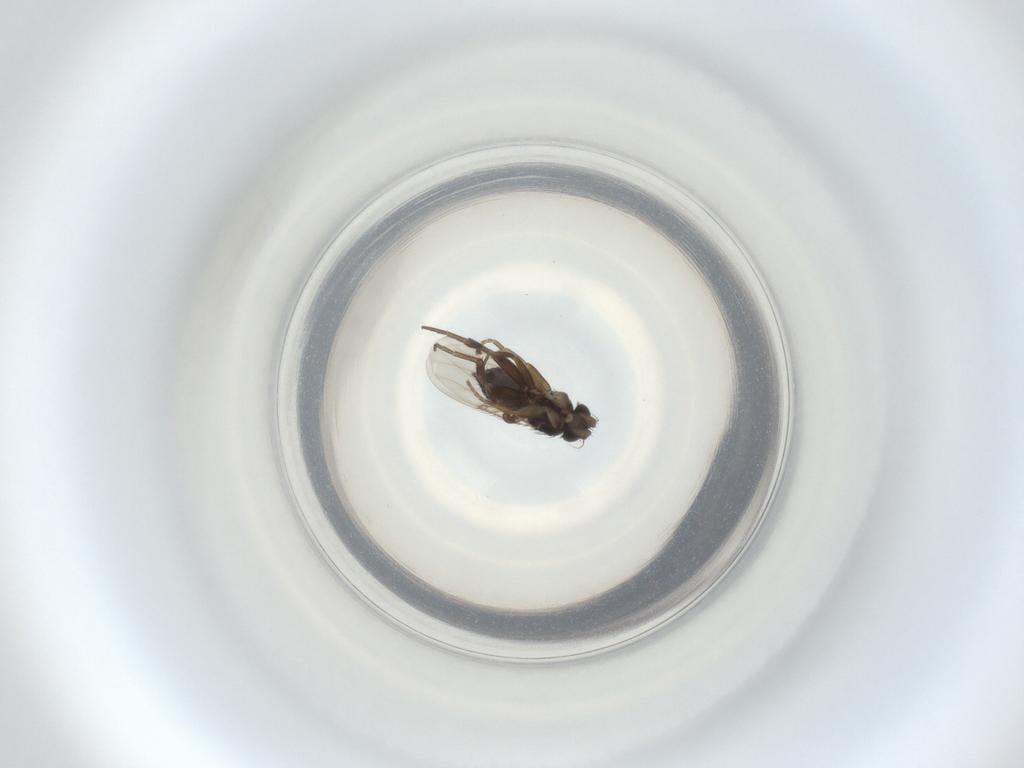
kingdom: Animalia
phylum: Arthropoda
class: Insecta
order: Diptera
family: Phoridae
